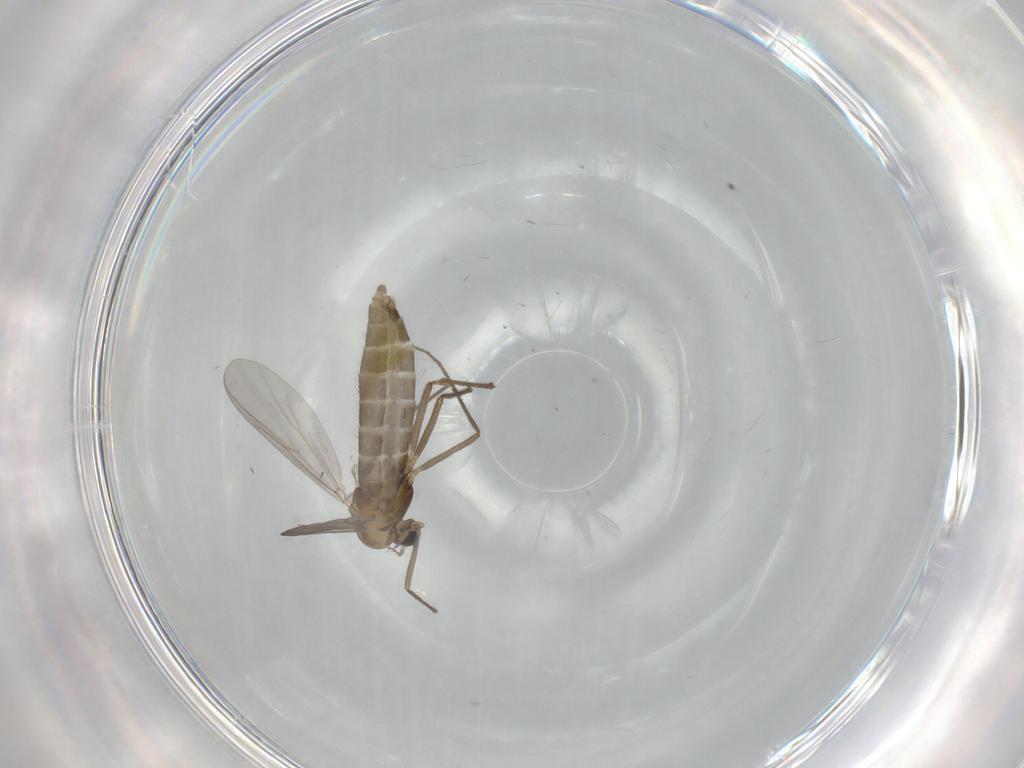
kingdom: Animalia
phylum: Arthropoda
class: Insecta
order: Diptera
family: Chironomidae
